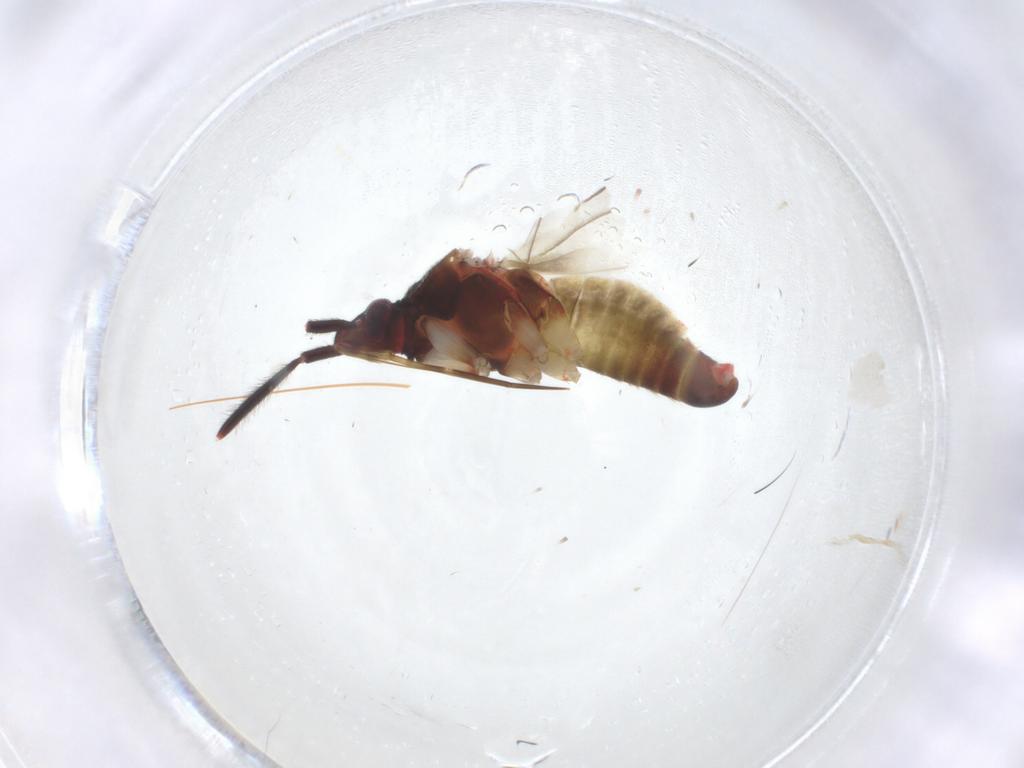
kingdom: Animalia
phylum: Arthropoda
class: Insecta
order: Hemiptera
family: Miridae
